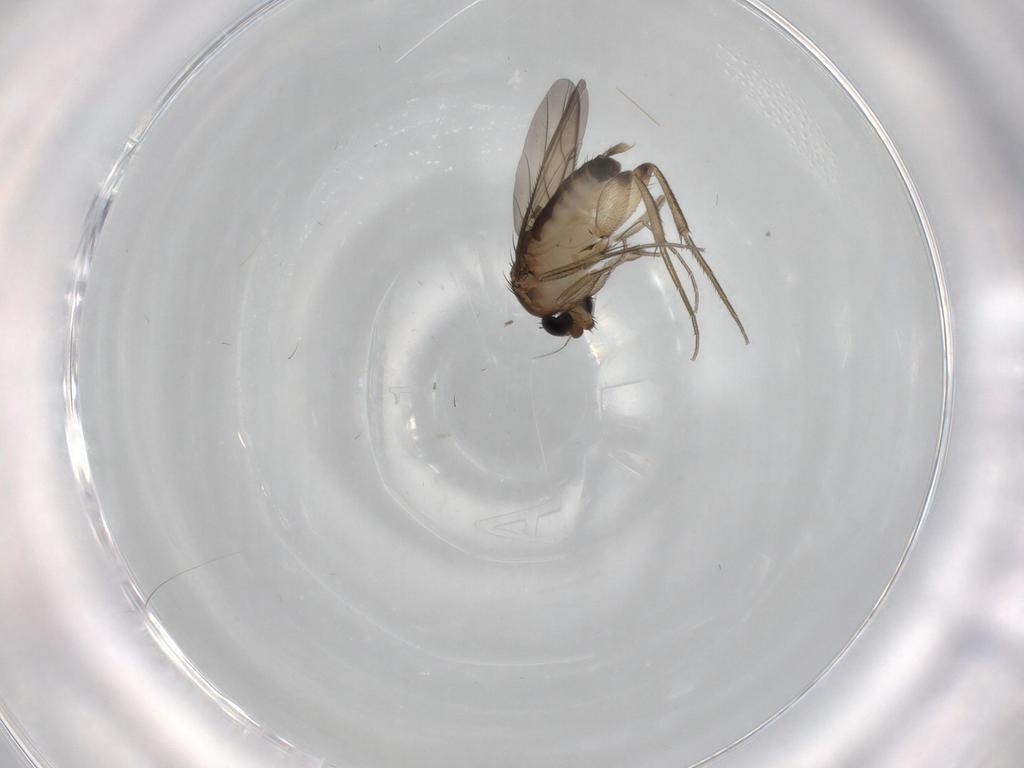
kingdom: Animalia
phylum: Arthropoda
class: Insecta
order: Diptera
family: Phoridae
